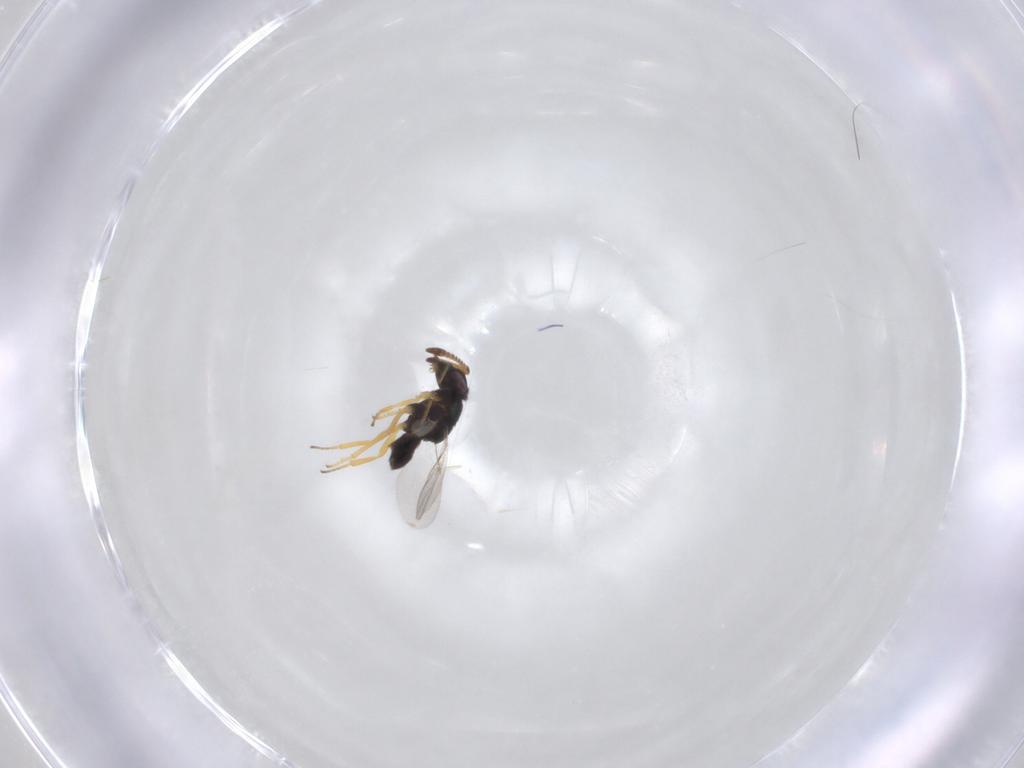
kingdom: Animalia
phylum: Arthropoda
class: Insecta
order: Hymenoptera
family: Encyrtidae
